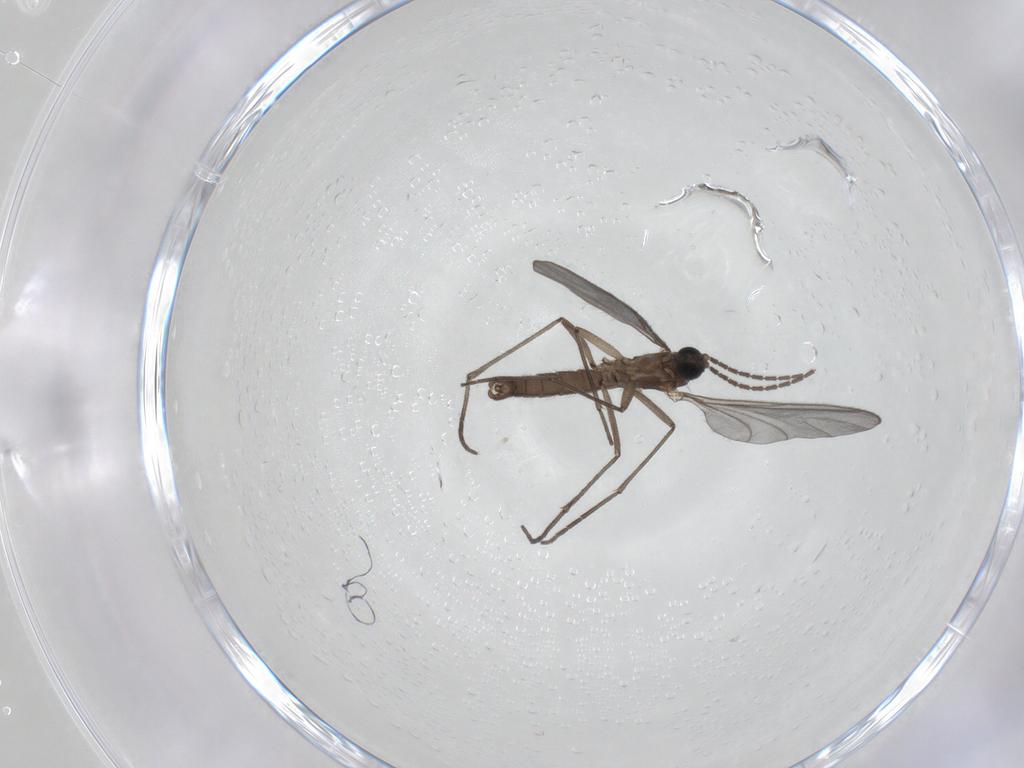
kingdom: Animalia
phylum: Arthropoda
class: Insecta
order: Diptera
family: Sciaridae
